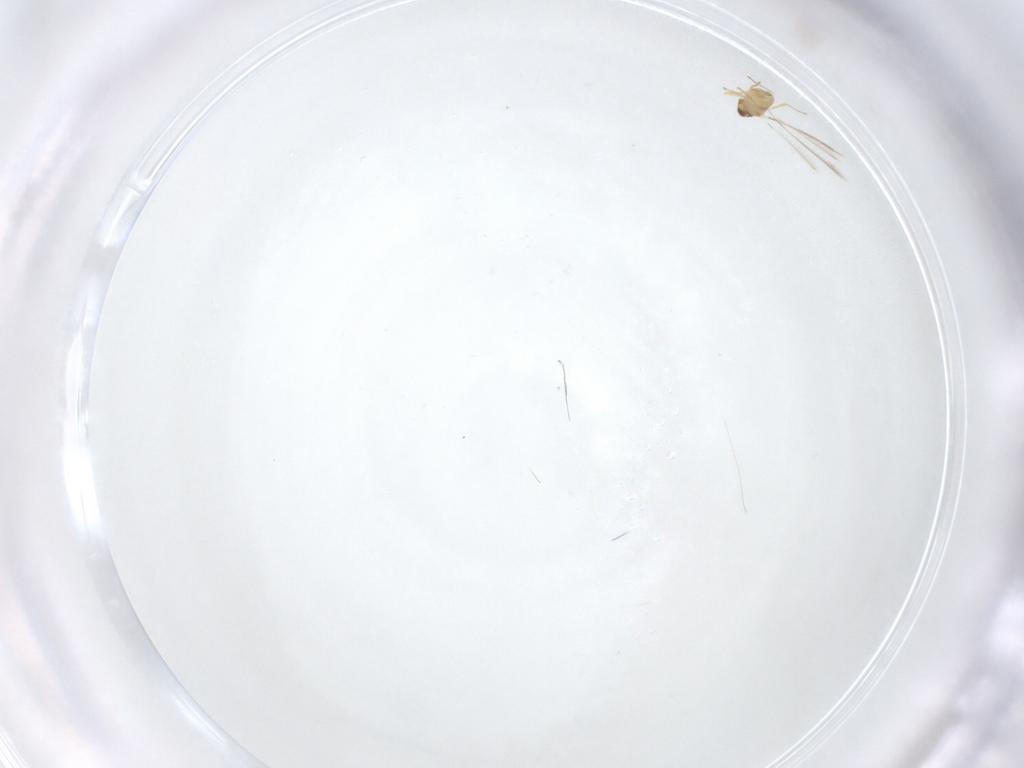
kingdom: Animalia
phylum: Arthropoda
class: Insecta
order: Hymenoptera
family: Mymaridae
